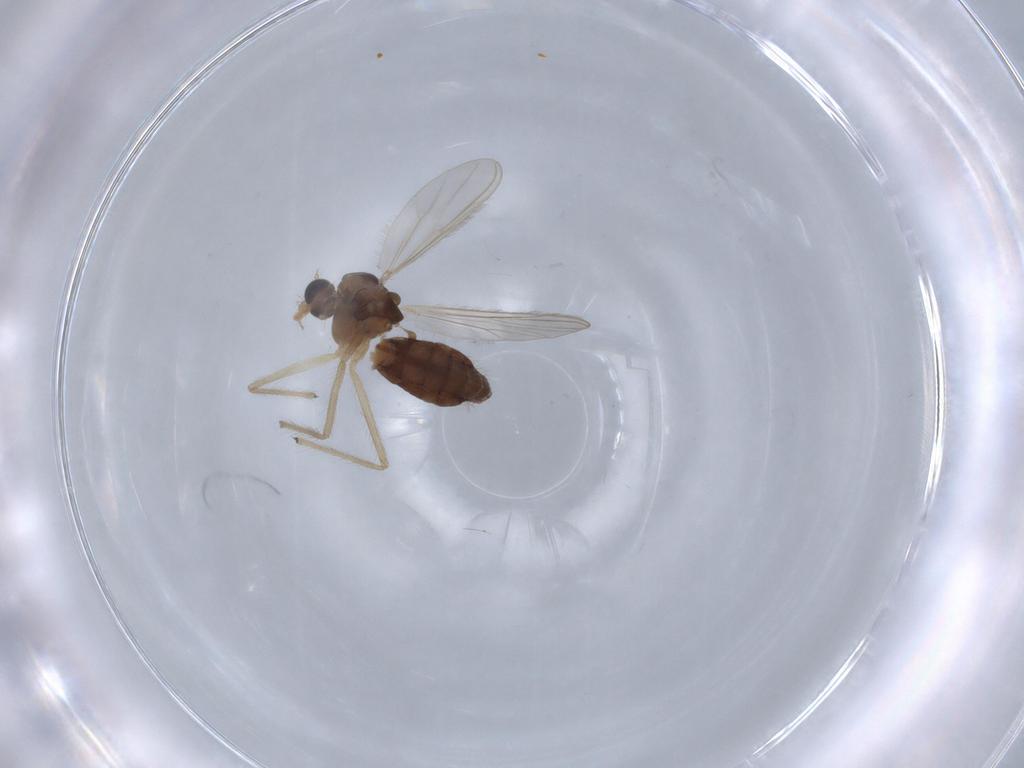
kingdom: Animalia
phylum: Arthropoda
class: Insecta
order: Diptera
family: Chironomidae
